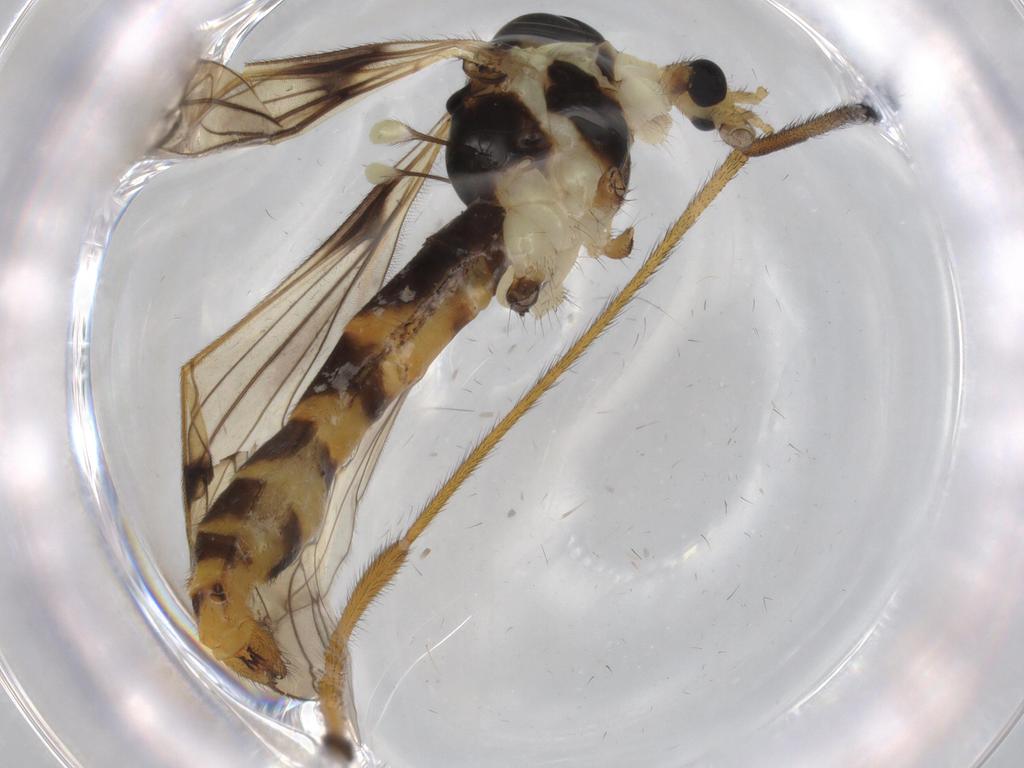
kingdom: Animalia
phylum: Arthropoda
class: Insecta
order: Diptera
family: Limoniidae
